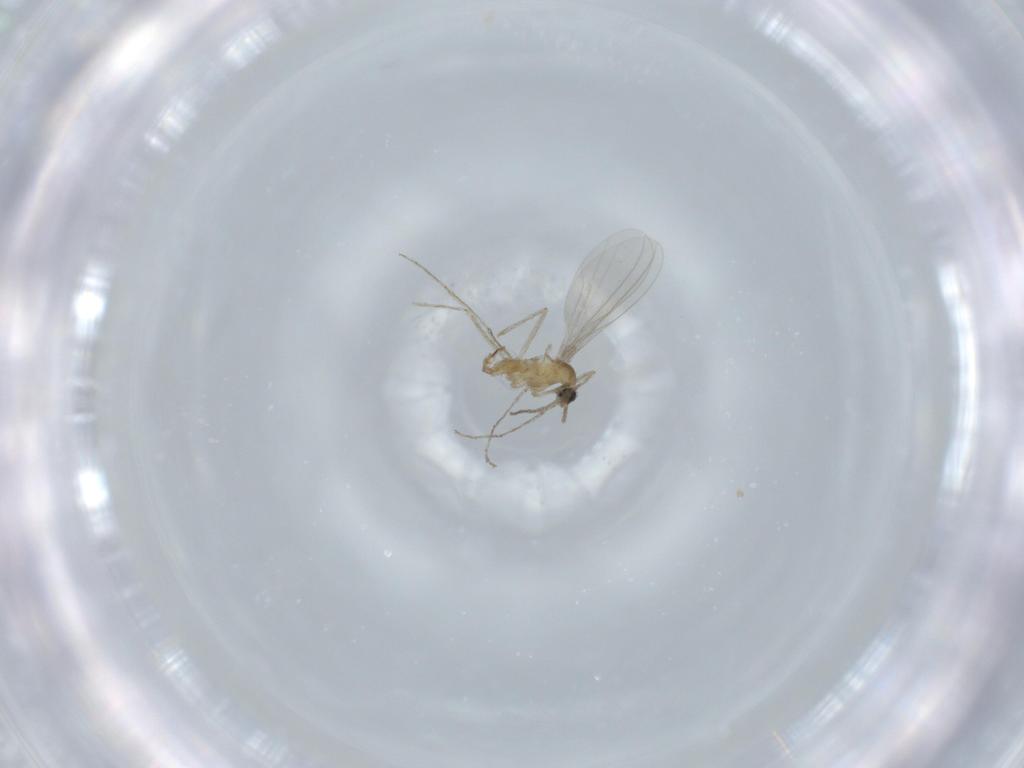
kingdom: Animalia
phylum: Arthropoda
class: Insecta
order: Diptera
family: Cecidomyiidae
